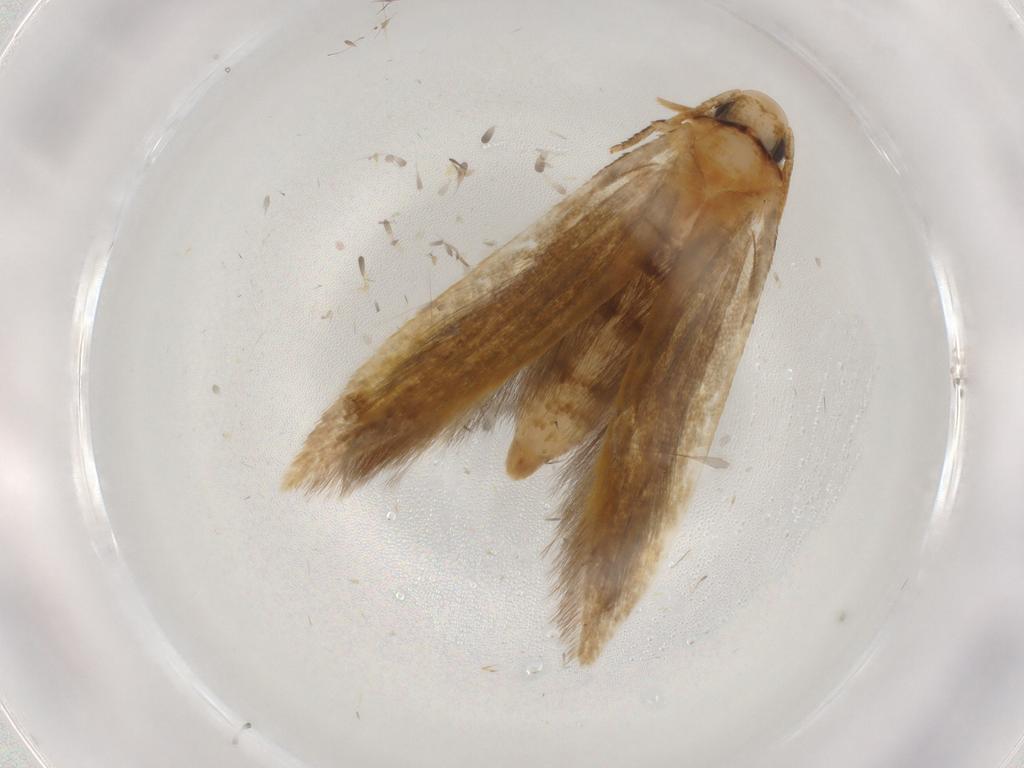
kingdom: Animalia
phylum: Arthropoda
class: Insecta
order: Lepidoptera
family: Tineidae
